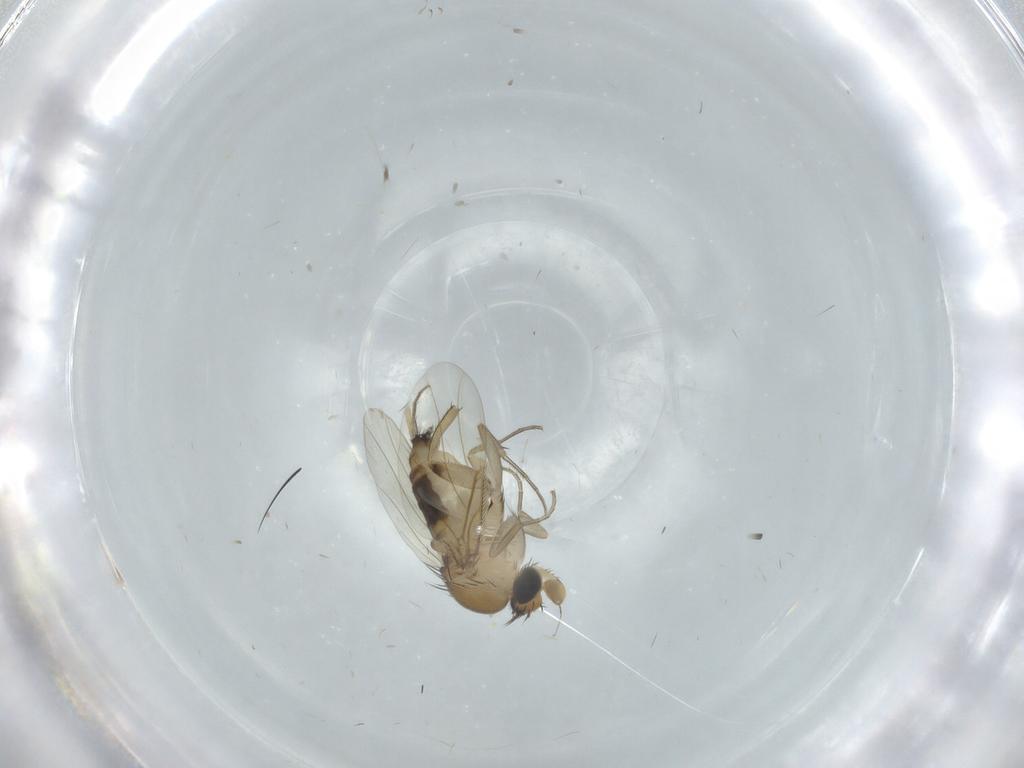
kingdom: Animalia
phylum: Arthropoda
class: Insecta
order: Diptera
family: Phoridae
